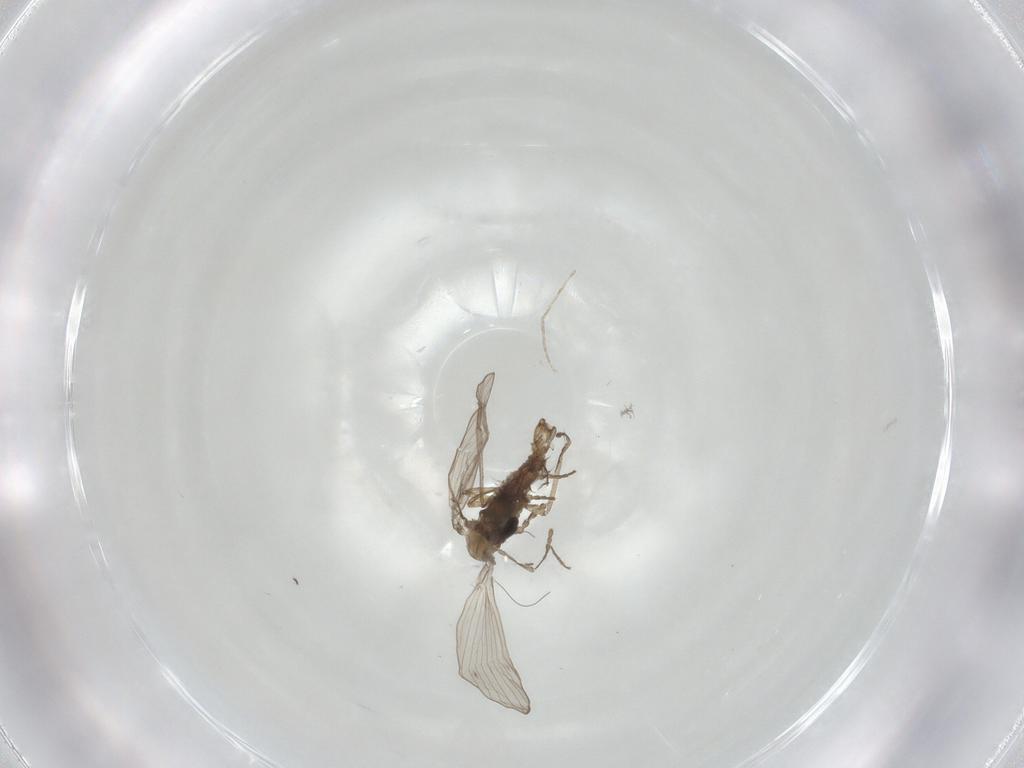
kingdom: Animalia
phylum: Arthropoda
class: Insecta
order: Diptera
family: Psychodidae
